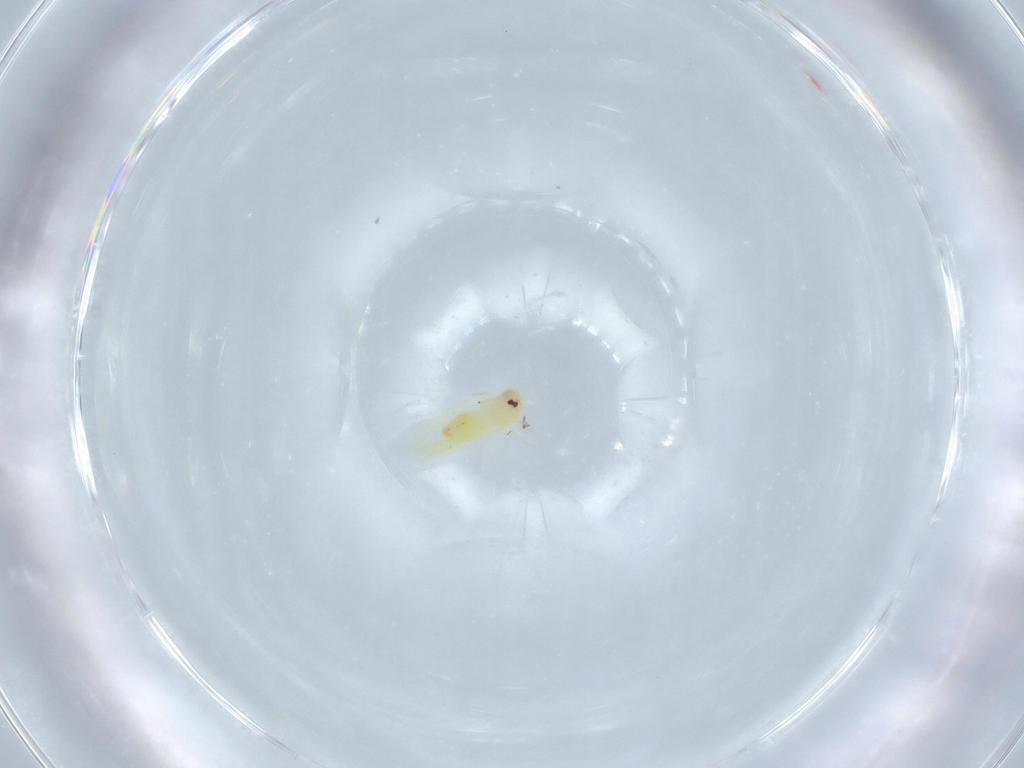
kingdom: Animalia
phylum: Arthropoda
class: Insecta
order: Hemiptera
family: Aleyrodidae
